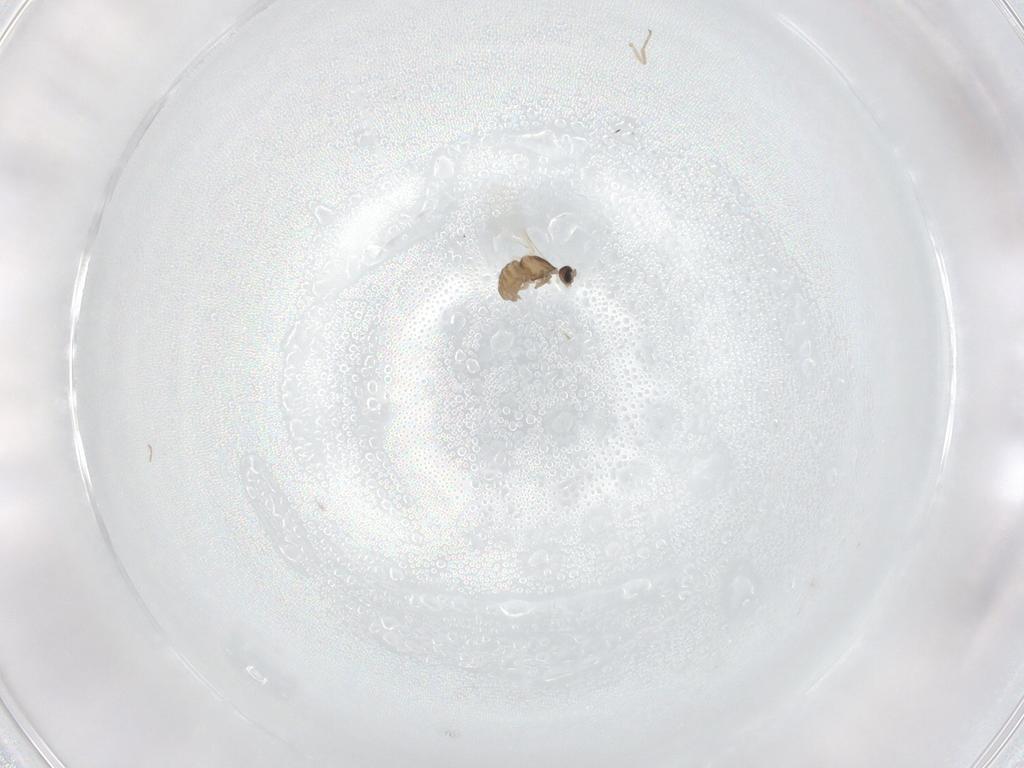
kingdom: Animalia
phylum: Arthropoda
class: Insecta
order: Diptera
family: Cecidomyiidae
